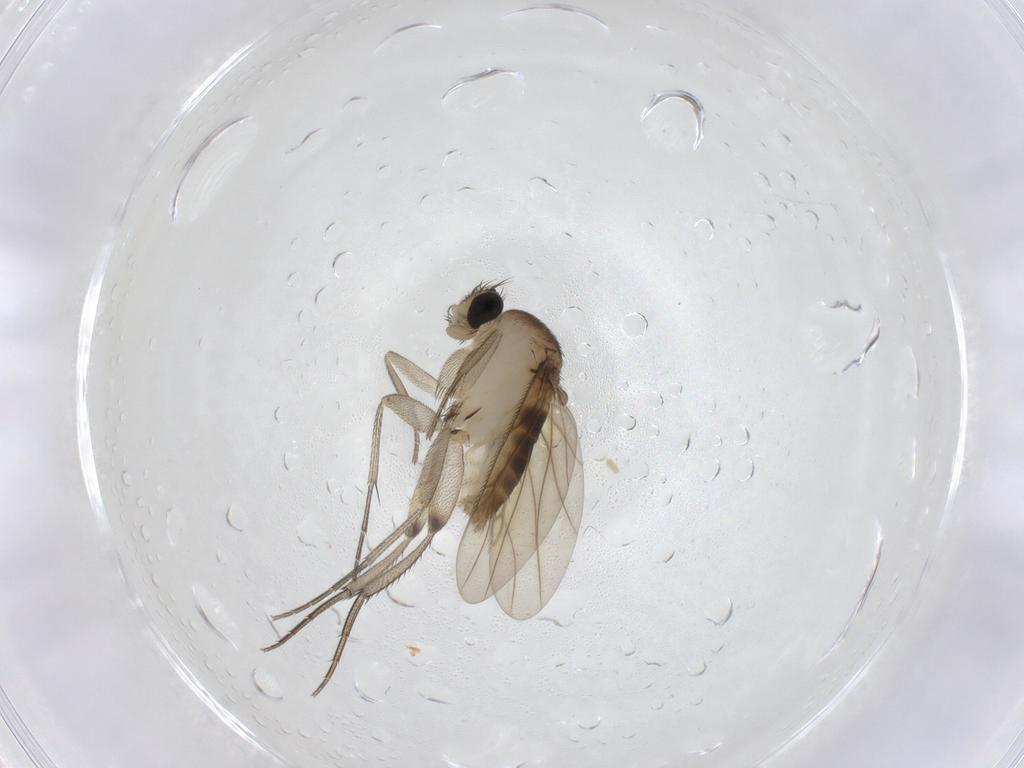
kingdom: Animalia
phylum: Arthropoda
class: Insecta
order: Diptera
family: Phoridae
